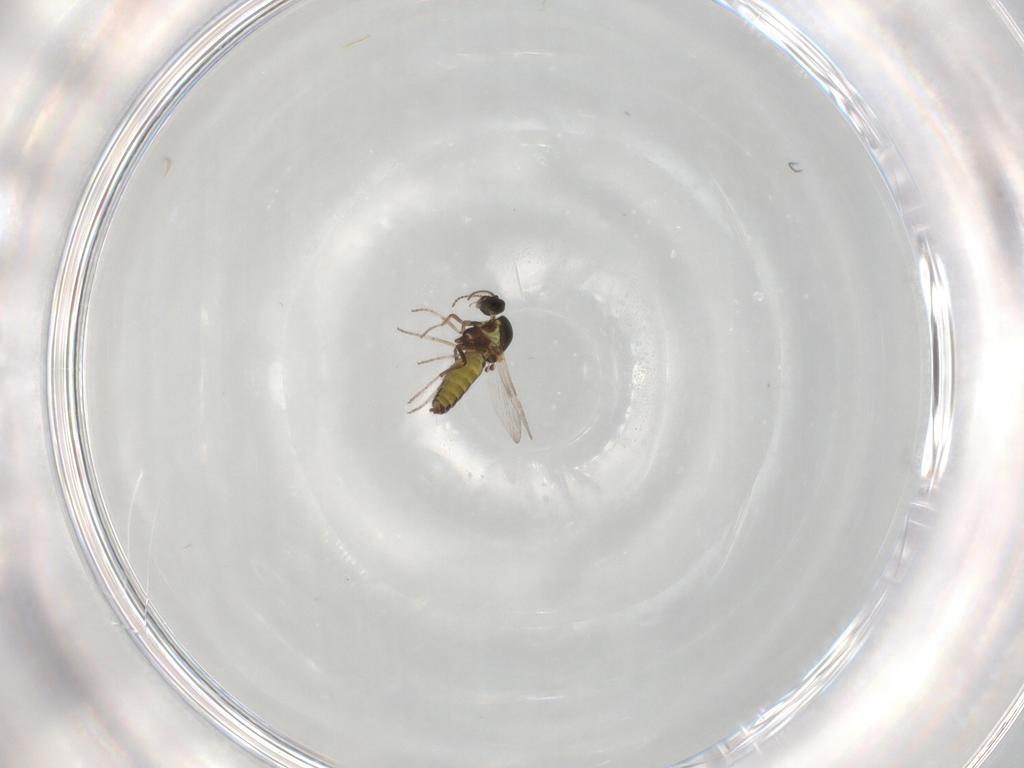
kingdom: Animalia
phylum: Arthropoda
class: Insecta
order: Diptera
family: Ceratopogonidae
